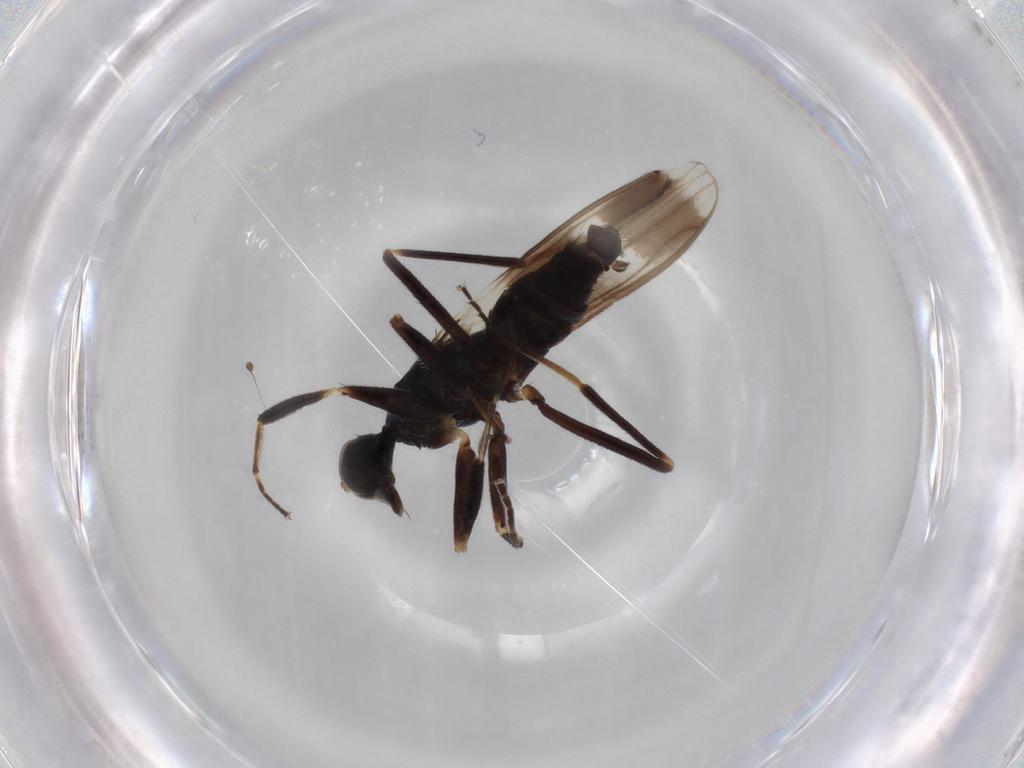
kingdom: Animalia
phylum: Arthropoda
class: Insecta
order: Diptera
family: Hybotidae
